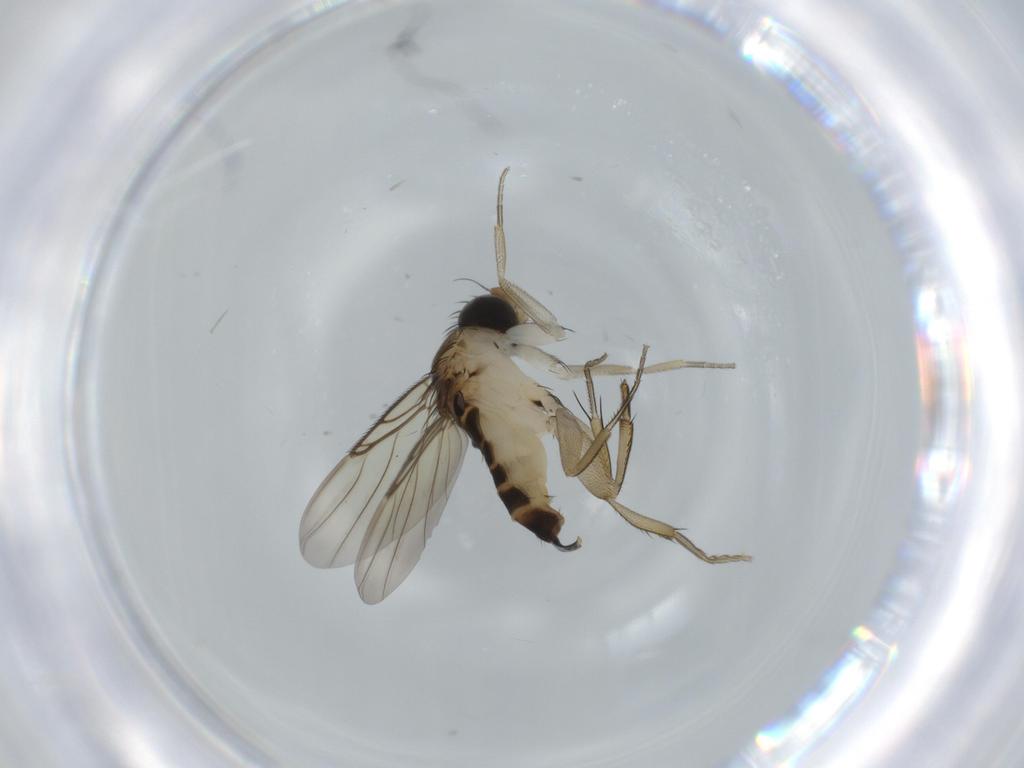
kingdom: Animalia
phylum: Arthropoda
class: Insecta
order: Diptera
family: Phoridae
